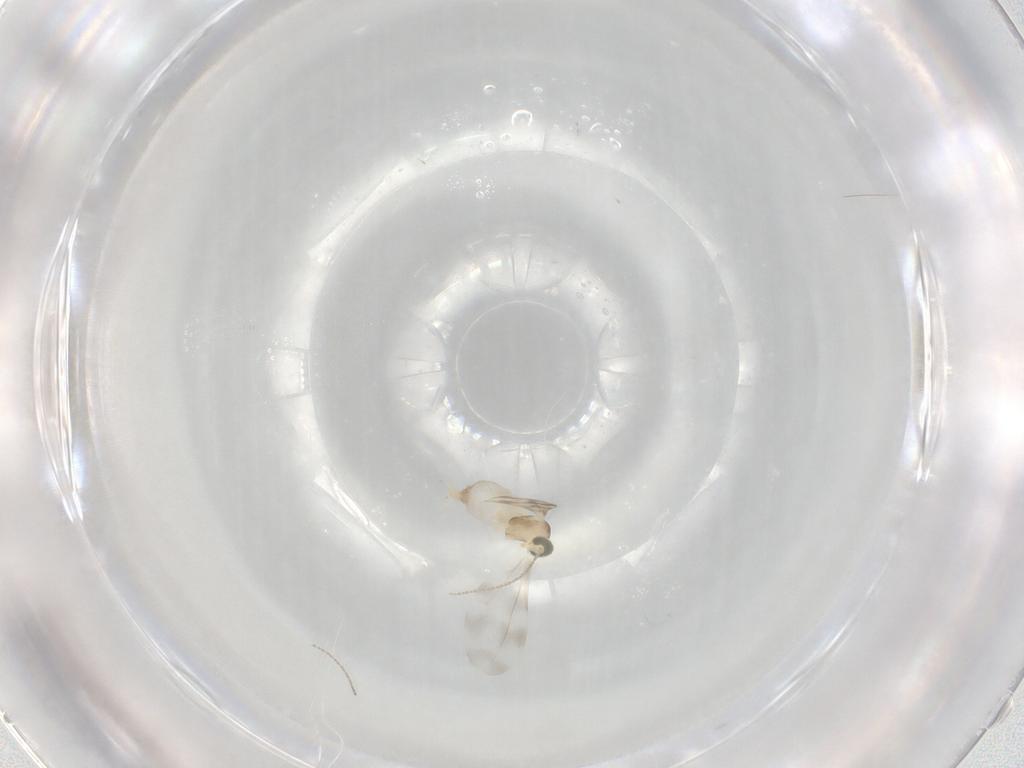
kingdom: Animalia
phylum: Arthropoda
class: Insecta
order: Diptera
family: Cecidomyiidae
